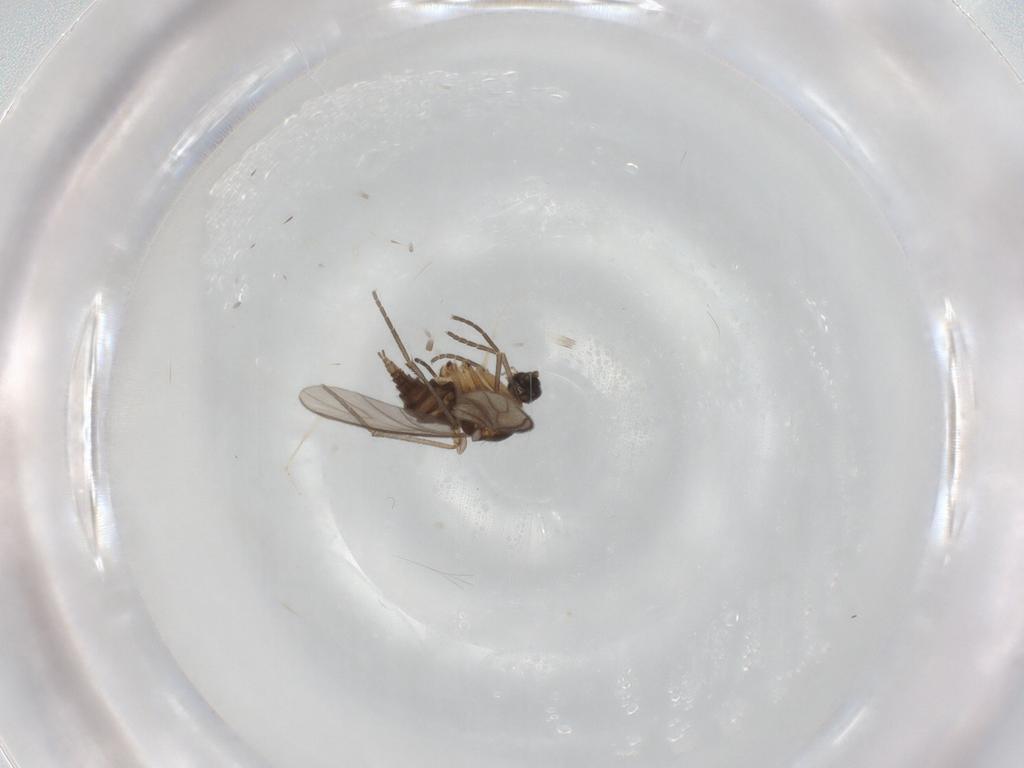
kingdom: Animalia
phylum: Arthropoda
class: Insecta
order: Diptera
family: Sciaridae
